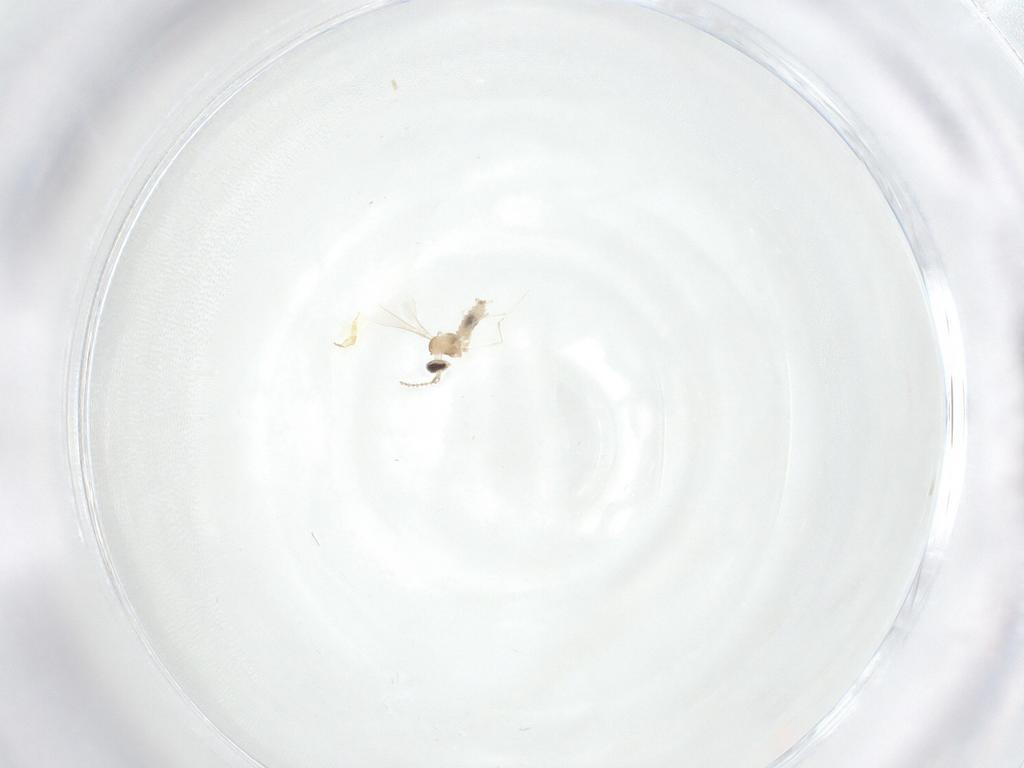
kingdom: Animalia
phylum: Arthropoda
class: Insecta
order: Diptera
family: Cecidomyiidae
